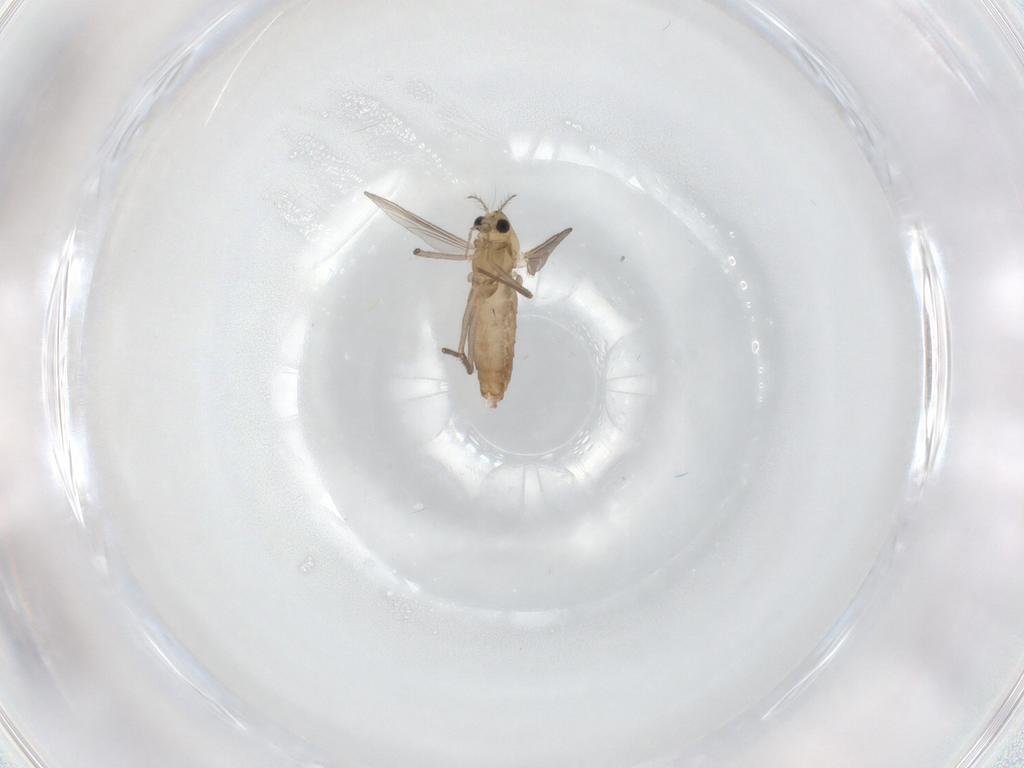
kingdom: Animalia
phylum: Arthropoda
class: Insecta
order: Diptera
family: Chironomidae
